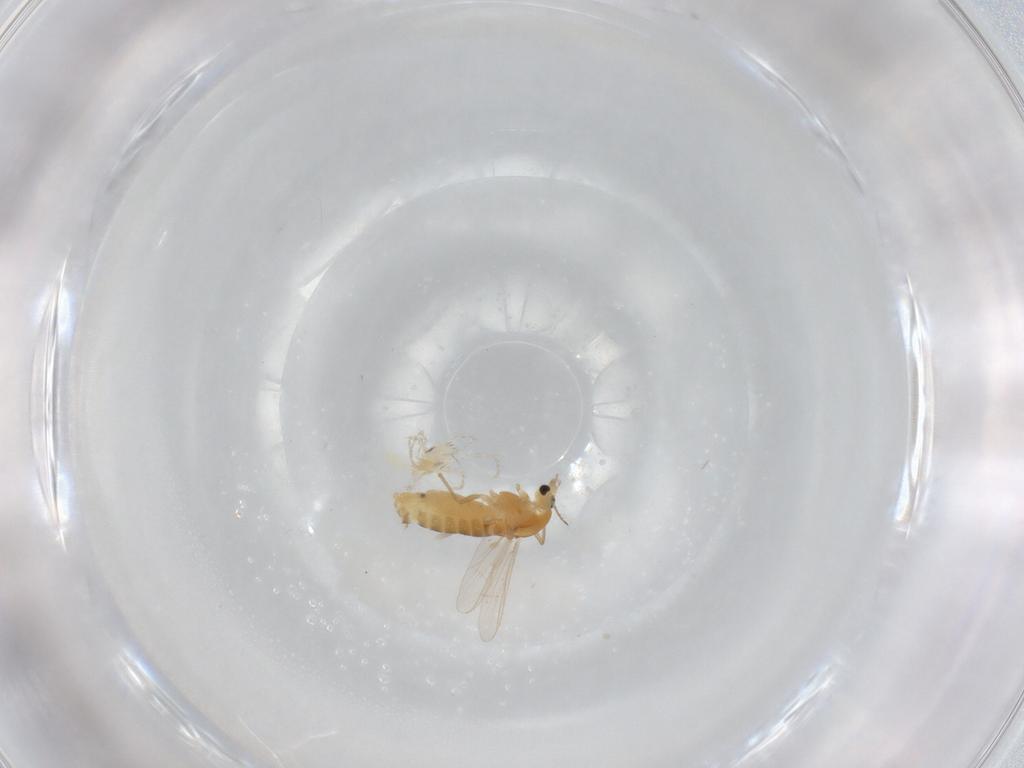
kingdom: Animalia
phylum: Arthropoda
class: Insecta
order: Diptera
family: Chironomidae
